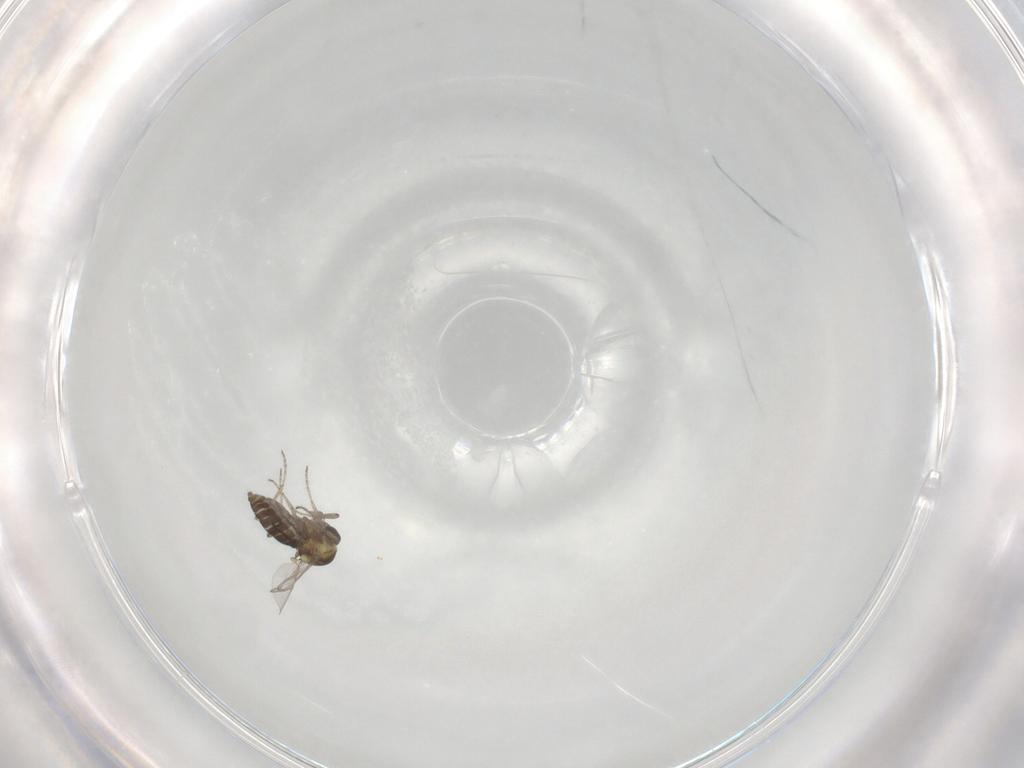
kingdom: Animalia
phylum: Arthropoda
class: Insecta
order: Diptera
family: Ceratopogonidae
